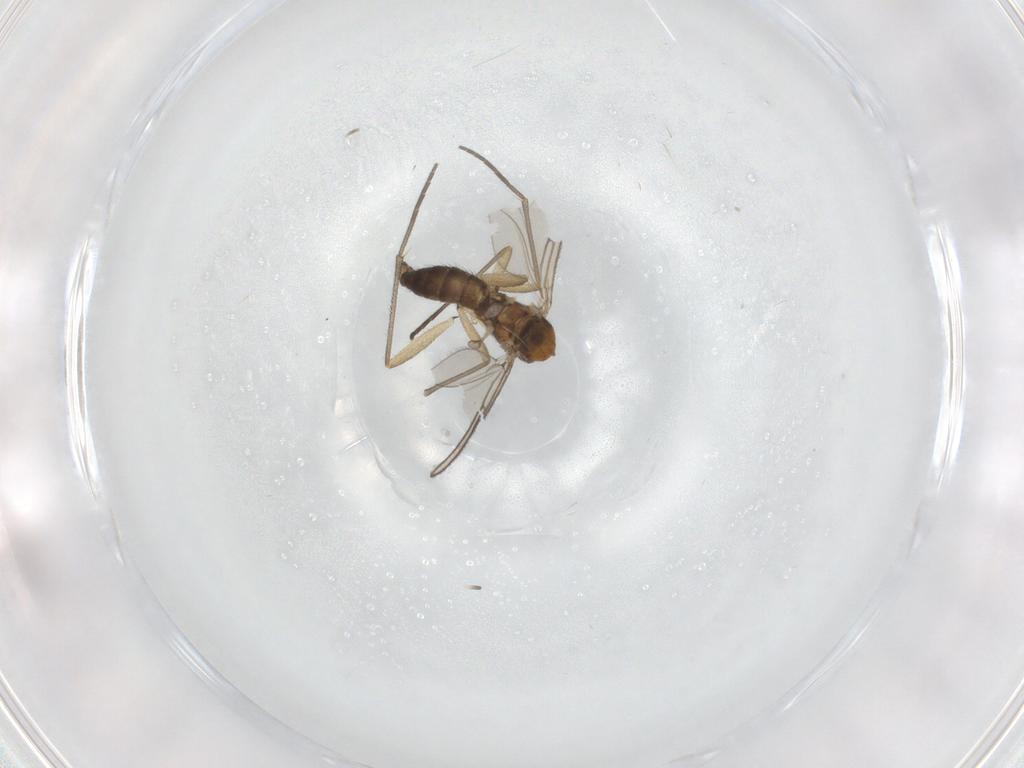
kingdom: Animalia
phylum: Arthropoda
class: Insecta
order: Diptera
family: Sciaridae
